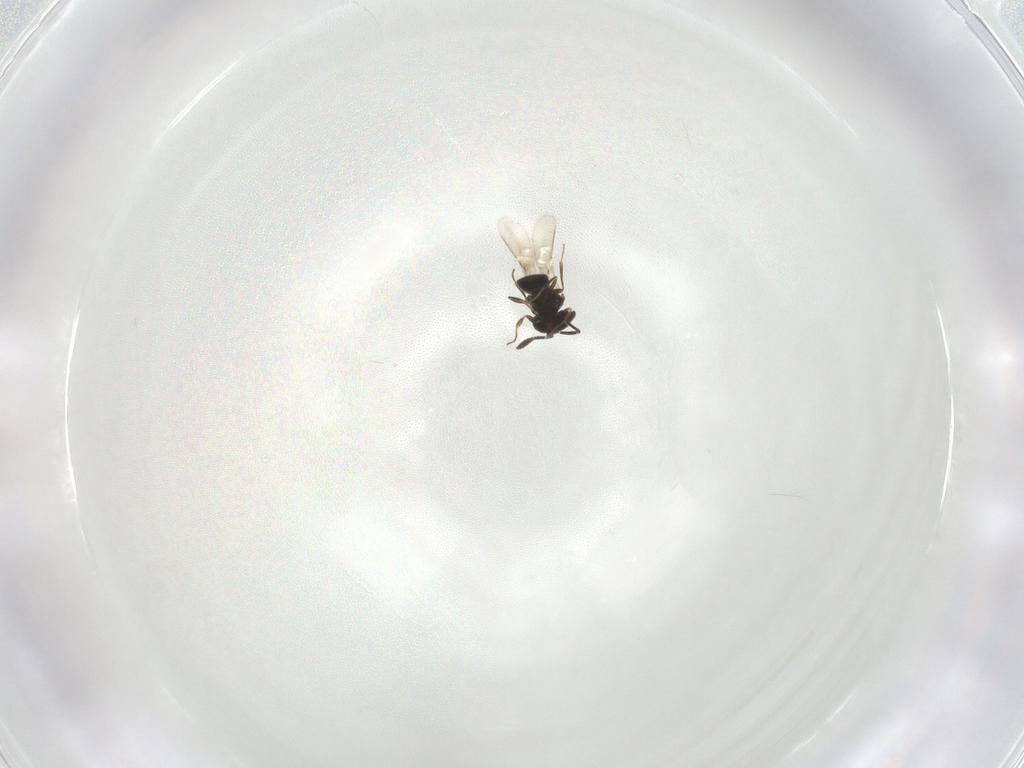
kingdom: Animalia
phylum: Arthropoda
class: Insecta
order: Hymenoptera
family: Scelionidae
